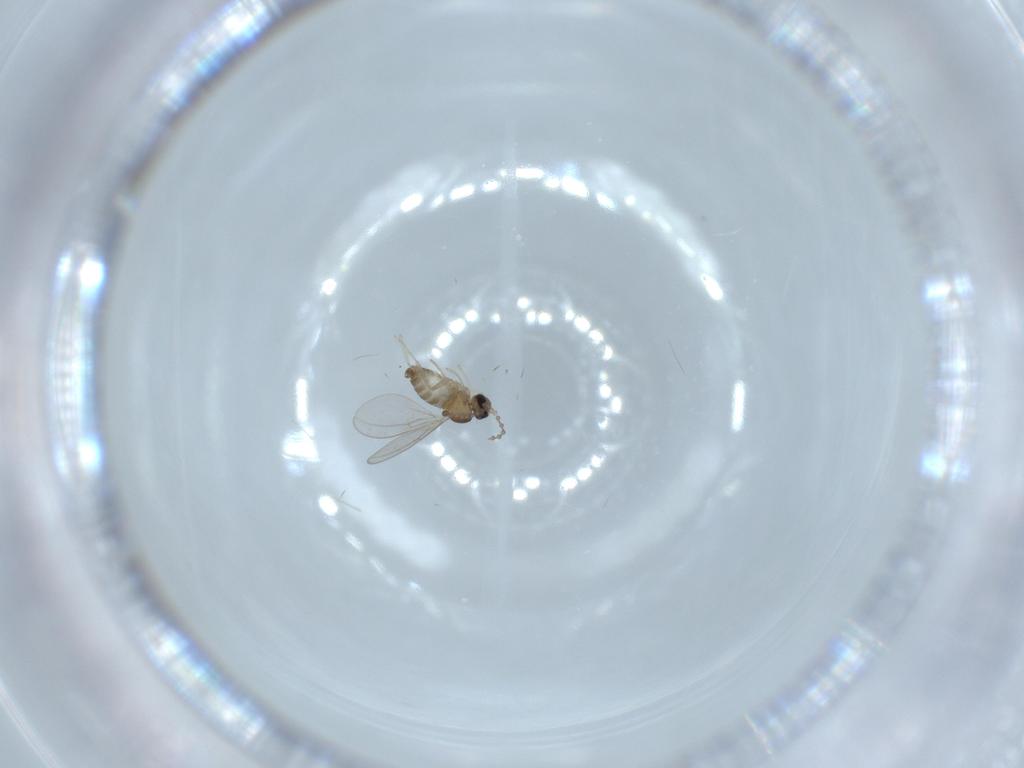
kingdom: Animalia
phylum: Arthropoda
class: Insecta
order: Diptera
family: Cecidomyiidae
